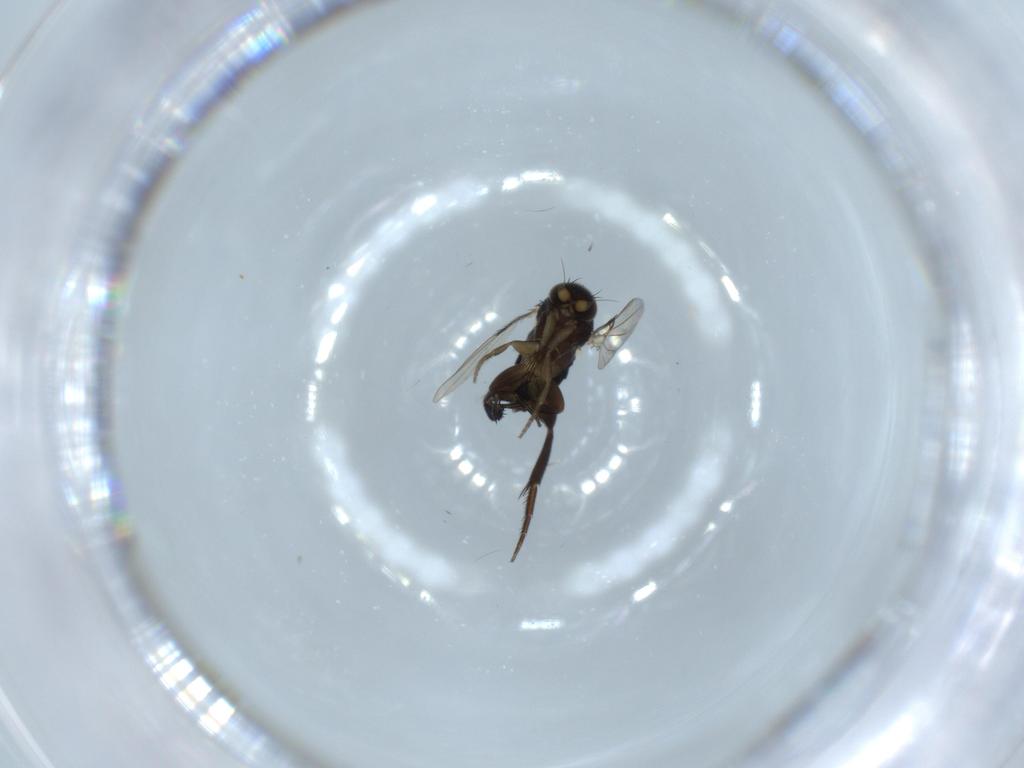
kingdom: Animalia
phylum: Arthropoda
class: Insecta
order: Diptera
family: Phoridae
